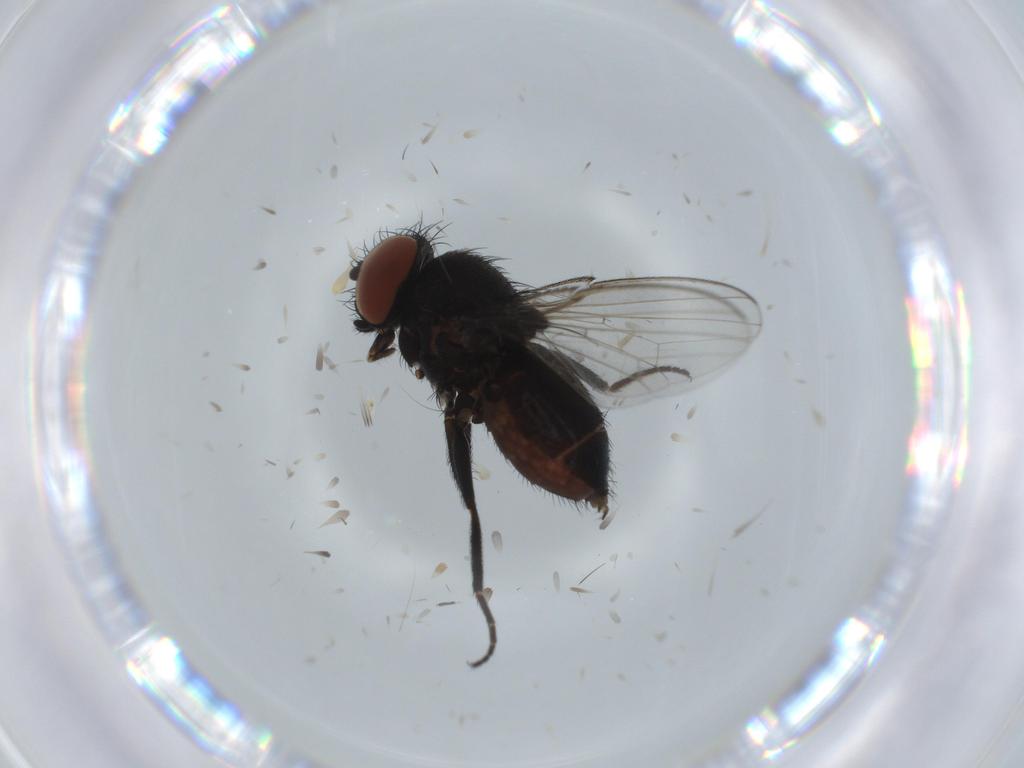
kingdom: Animalia
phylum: Arthropoda
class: Insecta
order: Diptera
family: Milichiidae
